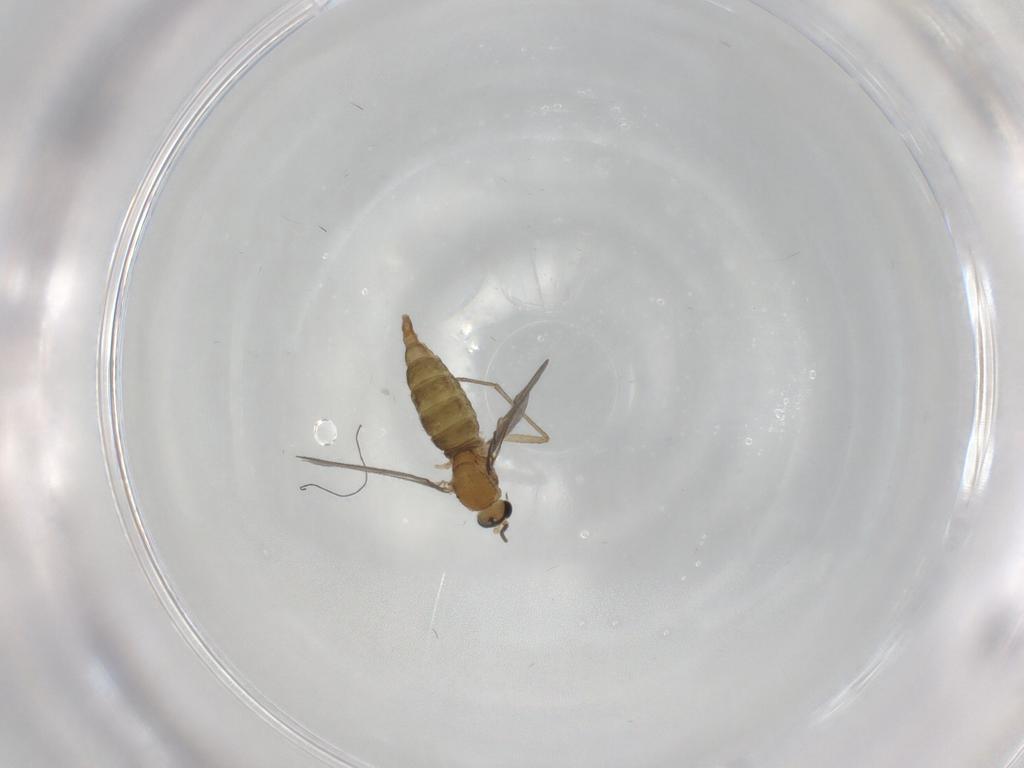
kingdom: Animalia
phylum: Arthropoda
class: Insecta
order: Diptera
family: Sciaridae
